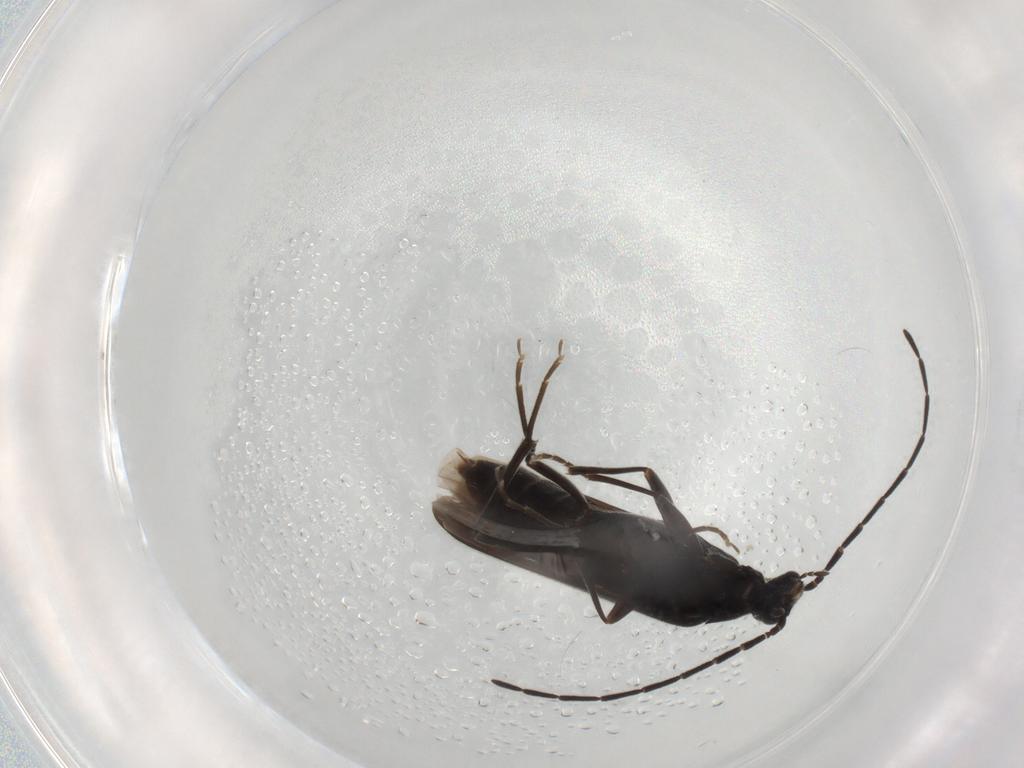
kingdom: Animalia
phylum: Arthropoda
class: Insecta
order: Coleoptera
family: Scraptiidae
